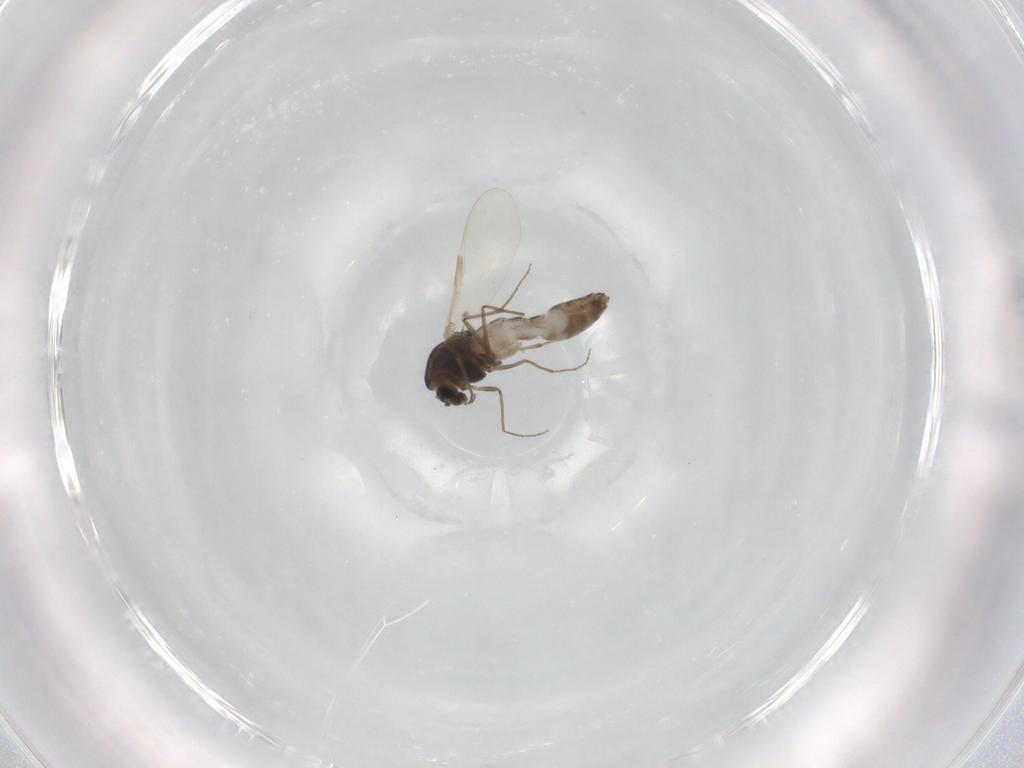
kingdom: Animalia
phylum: Arthropoda
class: Insecta
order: Diptera
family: Chironomidae
